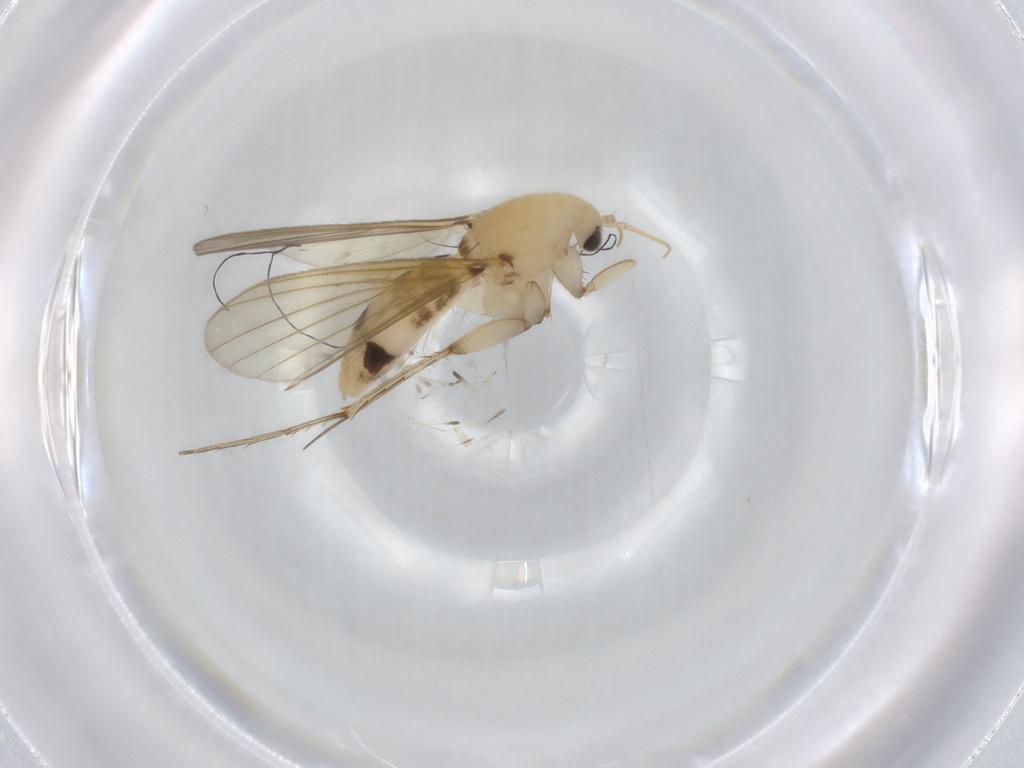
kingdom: Animalia
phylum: Arthropoda
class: Insecta
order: Diptera
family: Mycetophilidae
